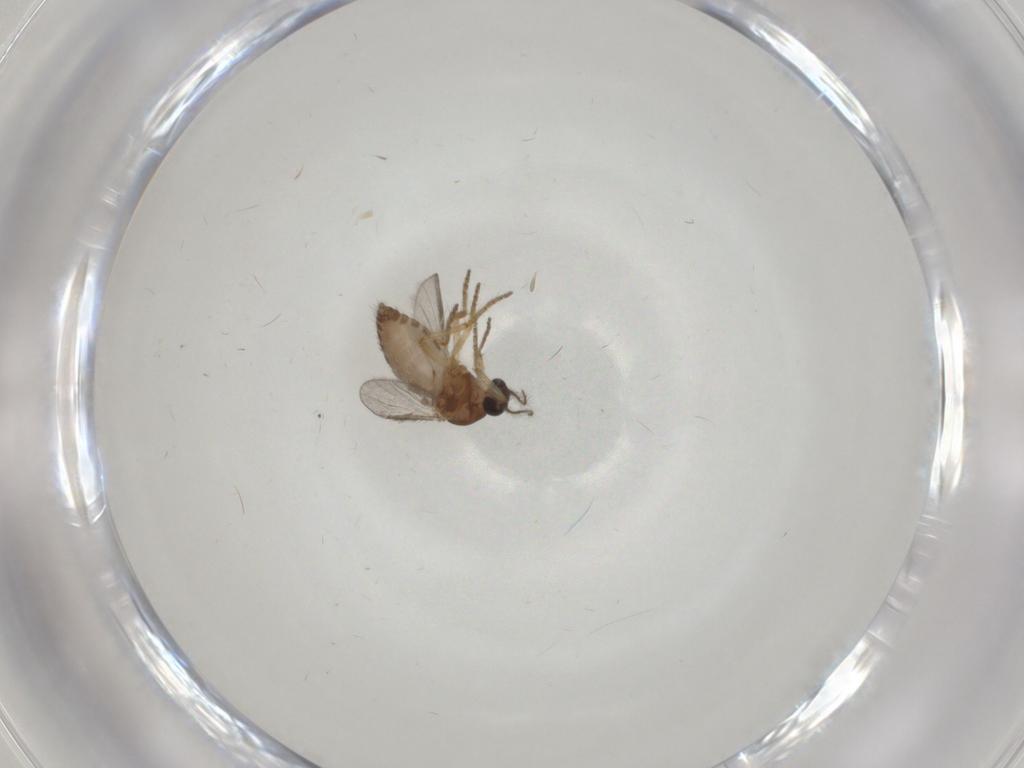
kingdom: Animalia
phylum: Arthropoda
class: Insecta
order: Diptera
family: Ceratopogonidae
